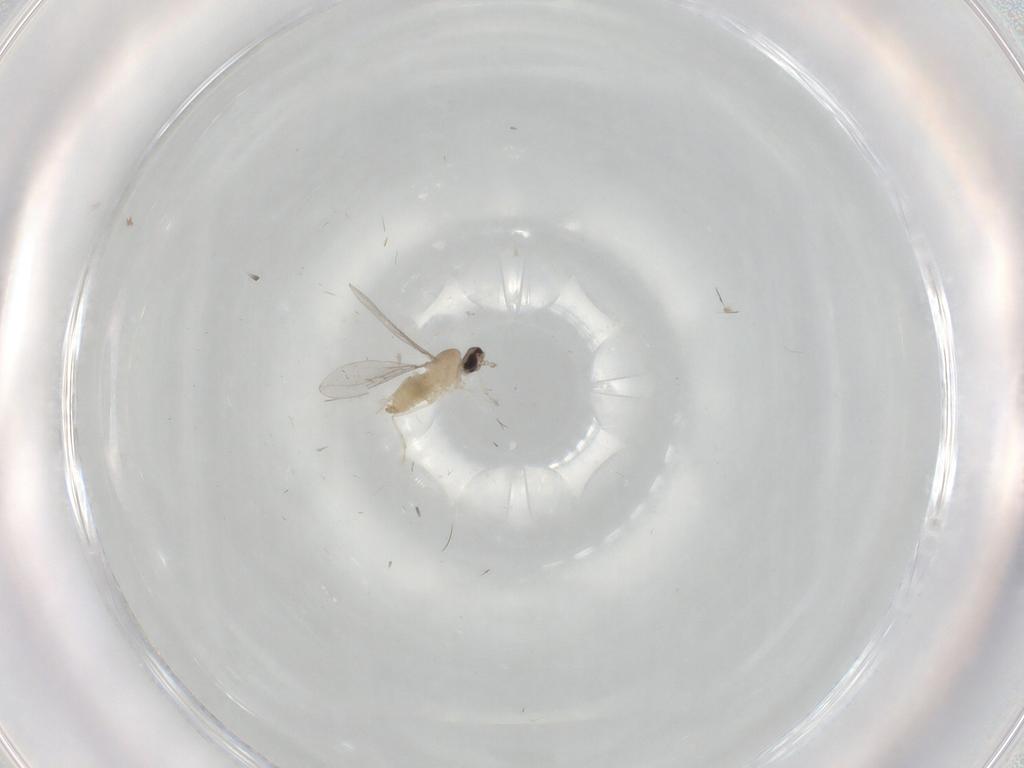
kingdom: Animalia
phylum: Arthropoda
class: Insecta
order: Diptera
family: Cecidomyiidae
